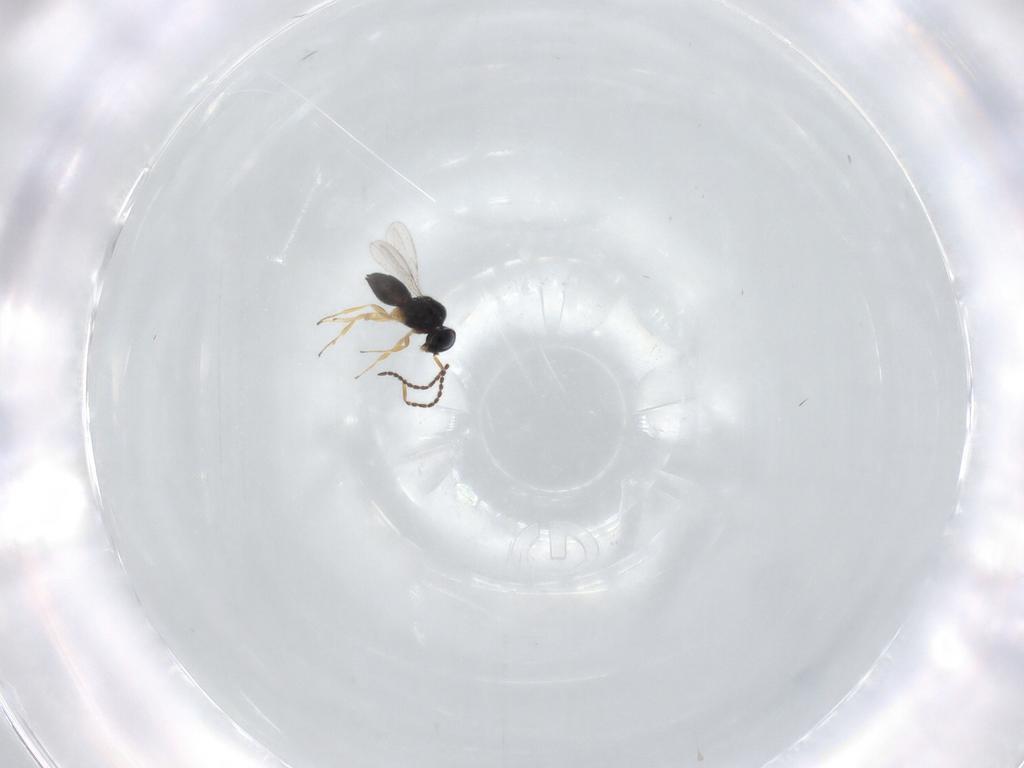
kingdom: Animalia
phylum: Arthropoda
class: Insecta
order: Hymenoptera
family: Scelionidae
